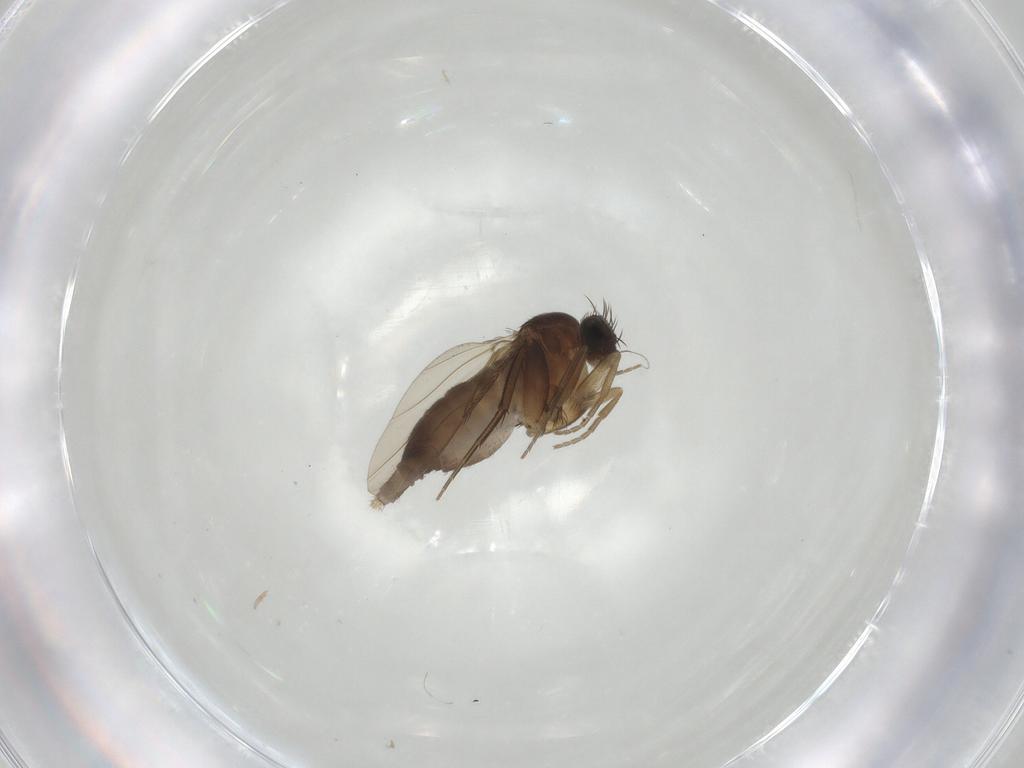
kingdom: Animalia
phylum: Arthropoda
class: Insecta
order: Diptera
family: Phoridae
